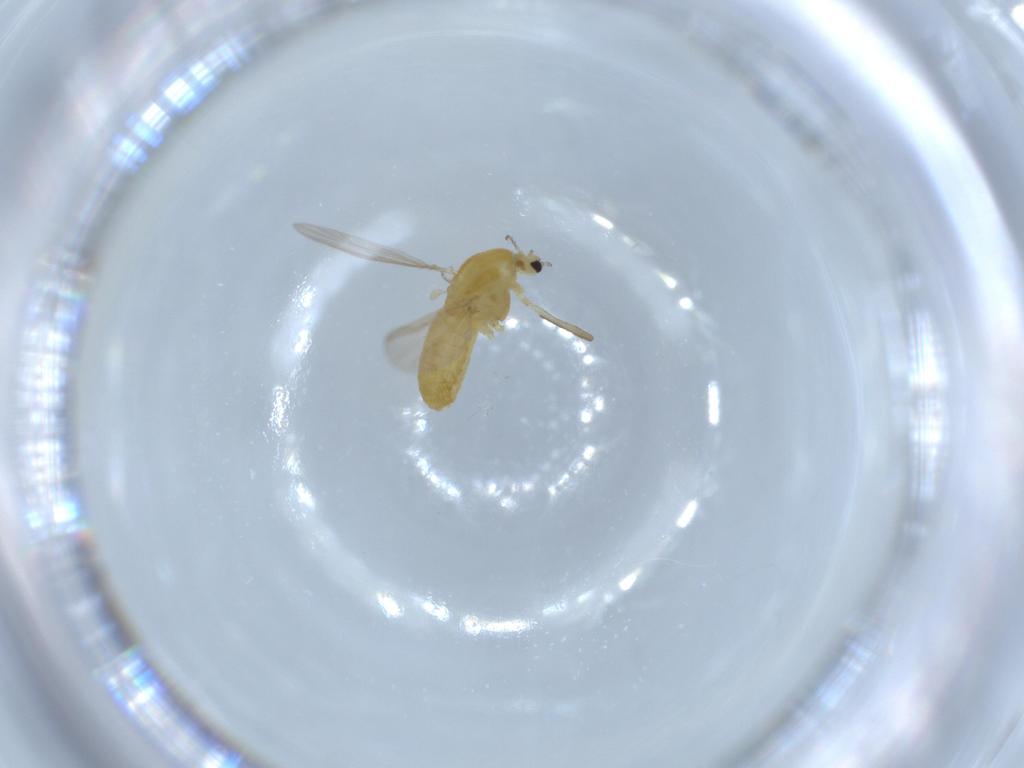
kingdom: Animalia
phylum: Arthropoda
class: Insecta
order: Diptera
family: Chironomidae
